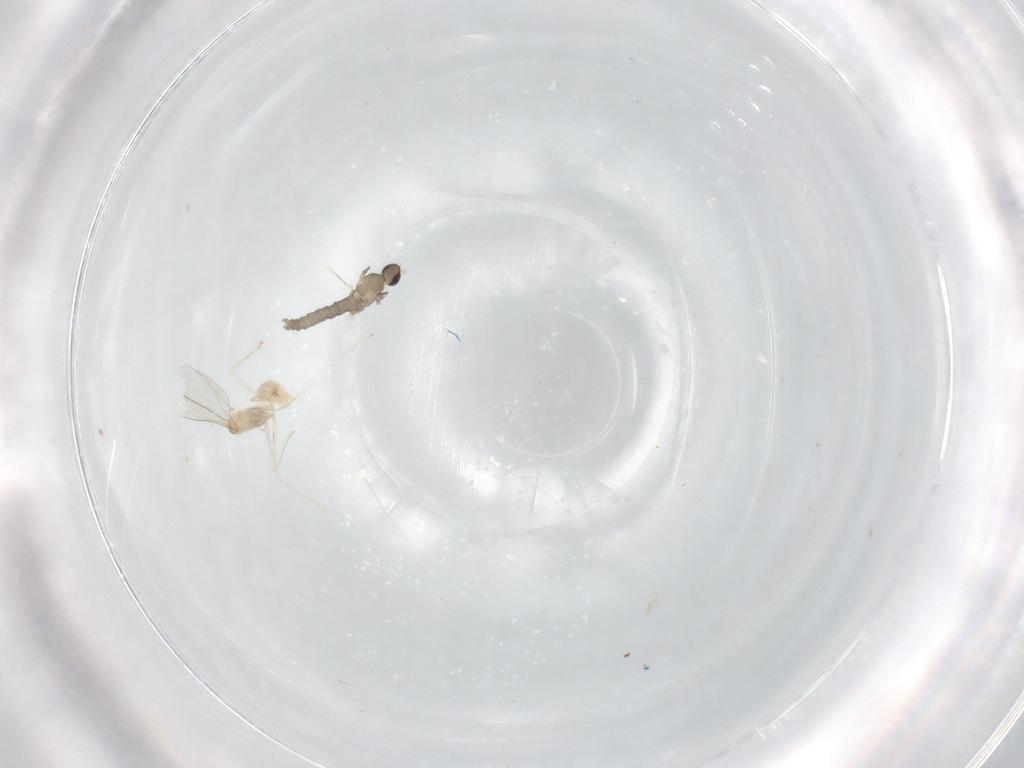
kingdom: Animalia
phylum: Arthropoda
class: Insecta
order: Diptera
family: Cecidomyiidae
